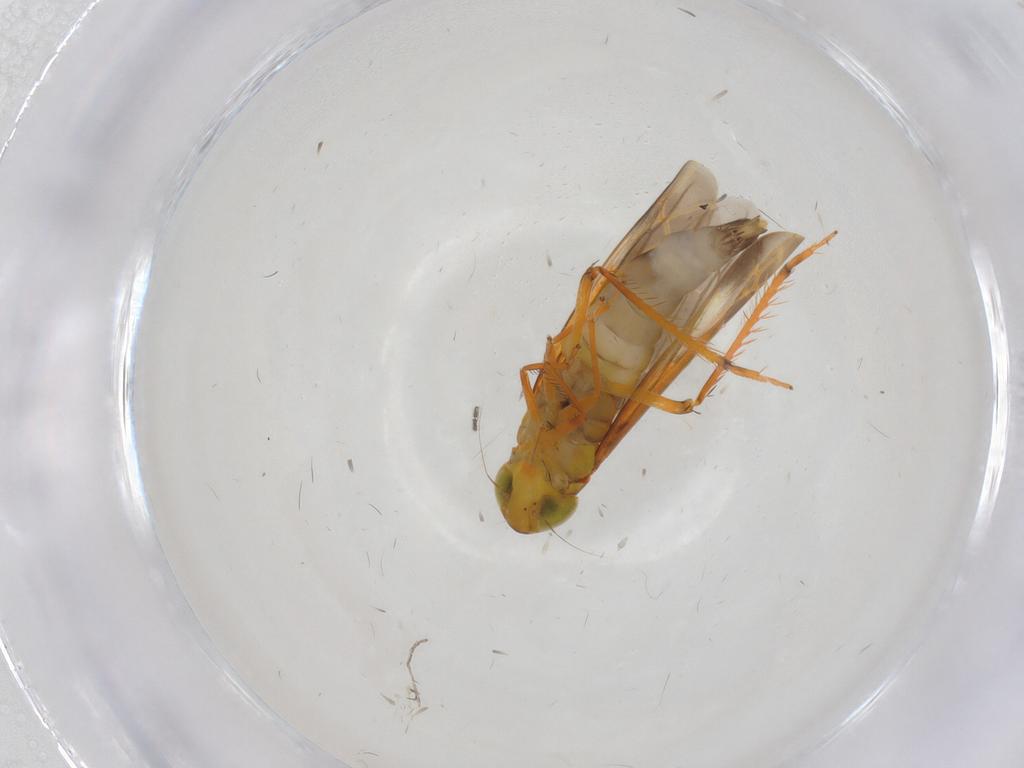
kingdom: Animalia
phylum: Arthropoda
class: Insecta
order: Hemiptera
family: Cicadellidae
